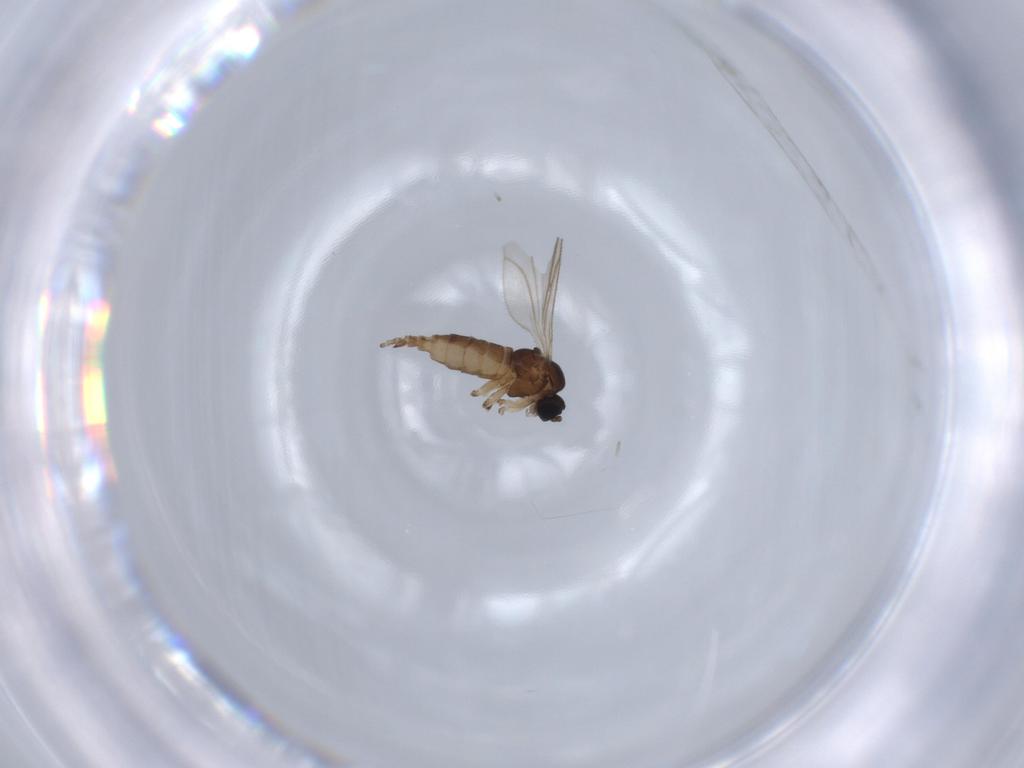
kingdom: Animalia
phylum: Arthropoda
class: Insecta
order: Diptera
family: Sciaridae
